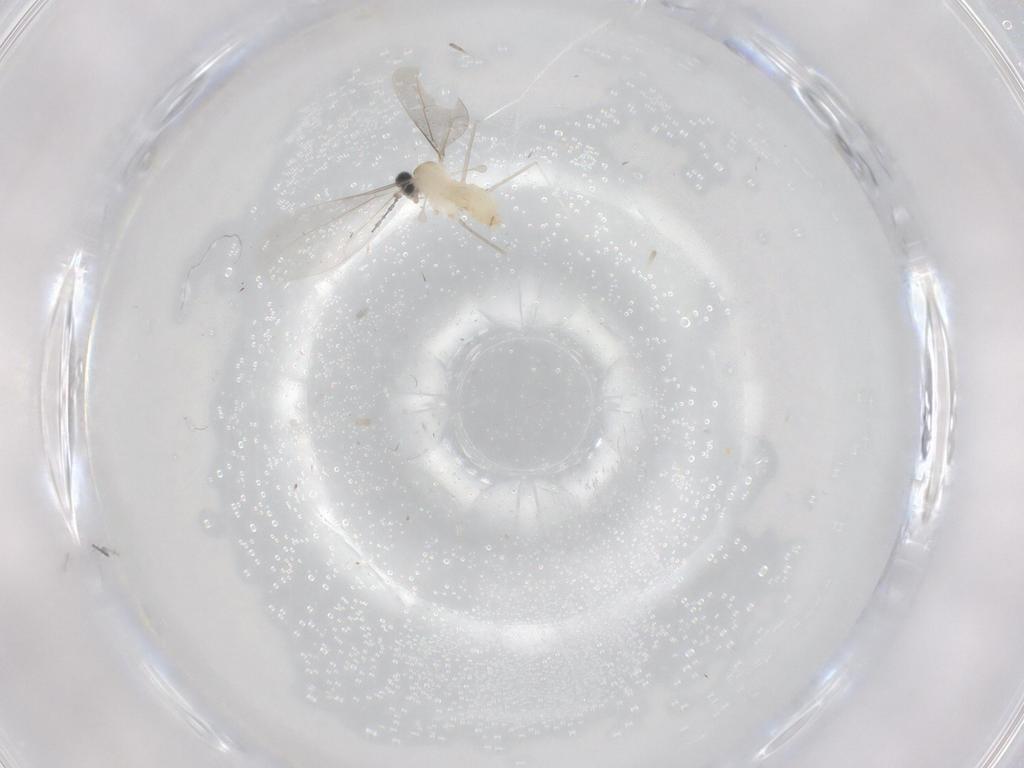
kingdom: Animalia
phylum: Arthropoda
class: Insecta
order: Diptera
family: Cecidomyiidae
